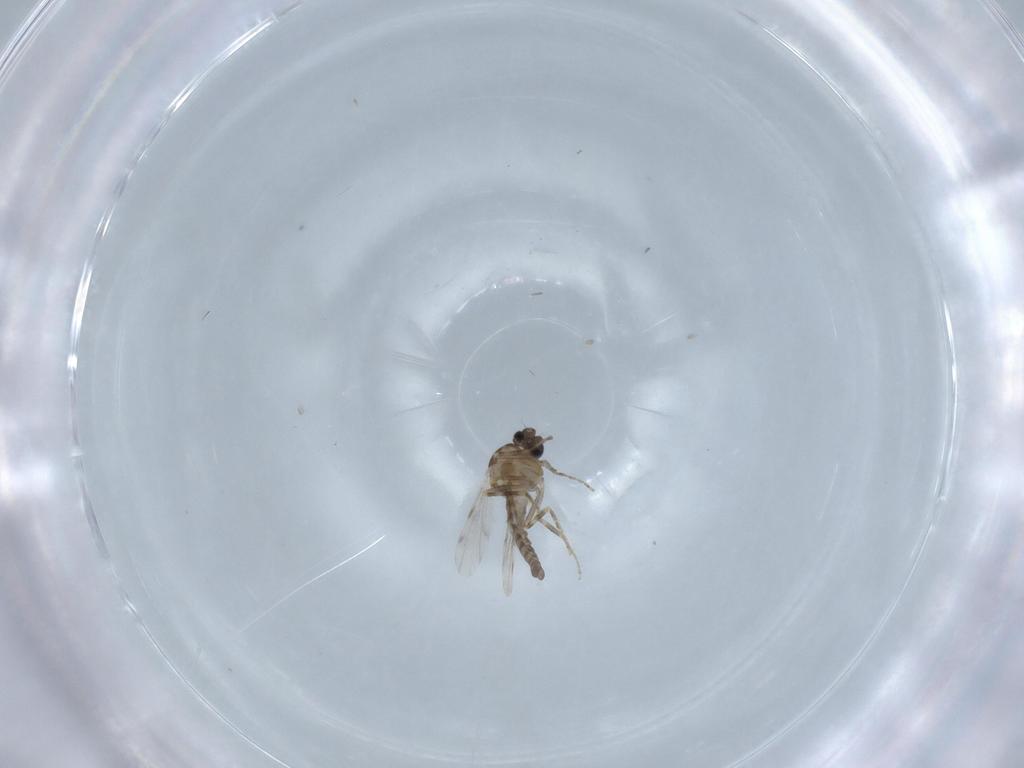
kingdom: Animalia
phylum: Arthropoda
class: Insecta
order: Diptera
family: Ceratopogonidae
